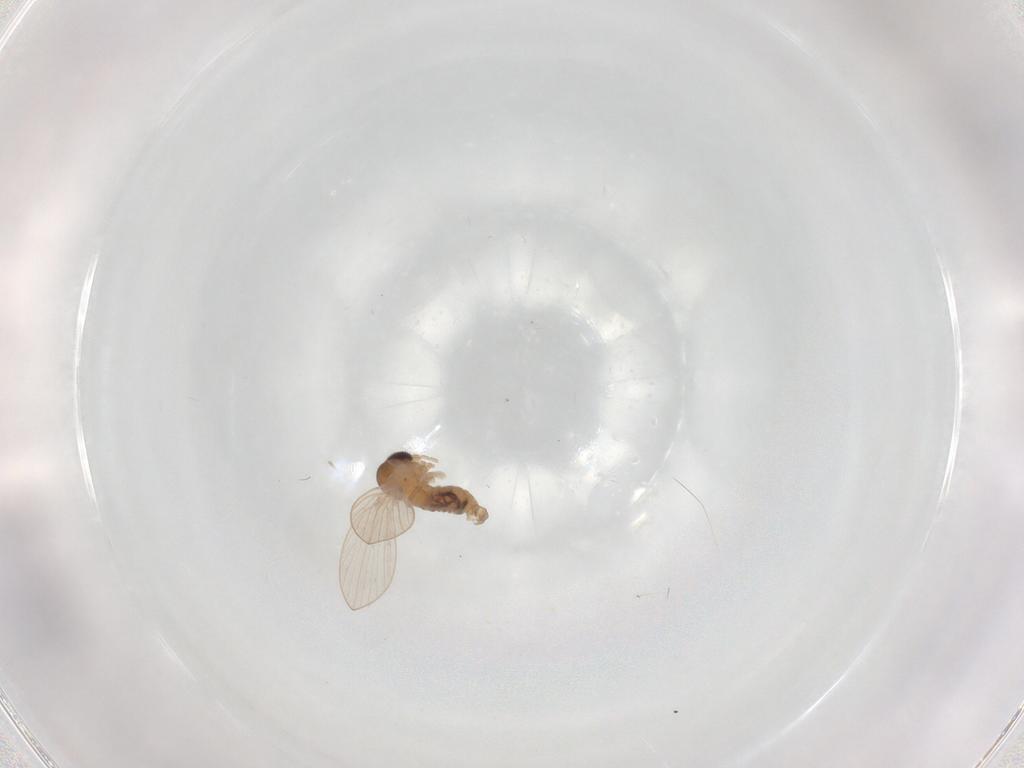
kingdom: Animalia
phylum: Arthropoda
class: Insecta
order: Diptera
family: Psychodidae
